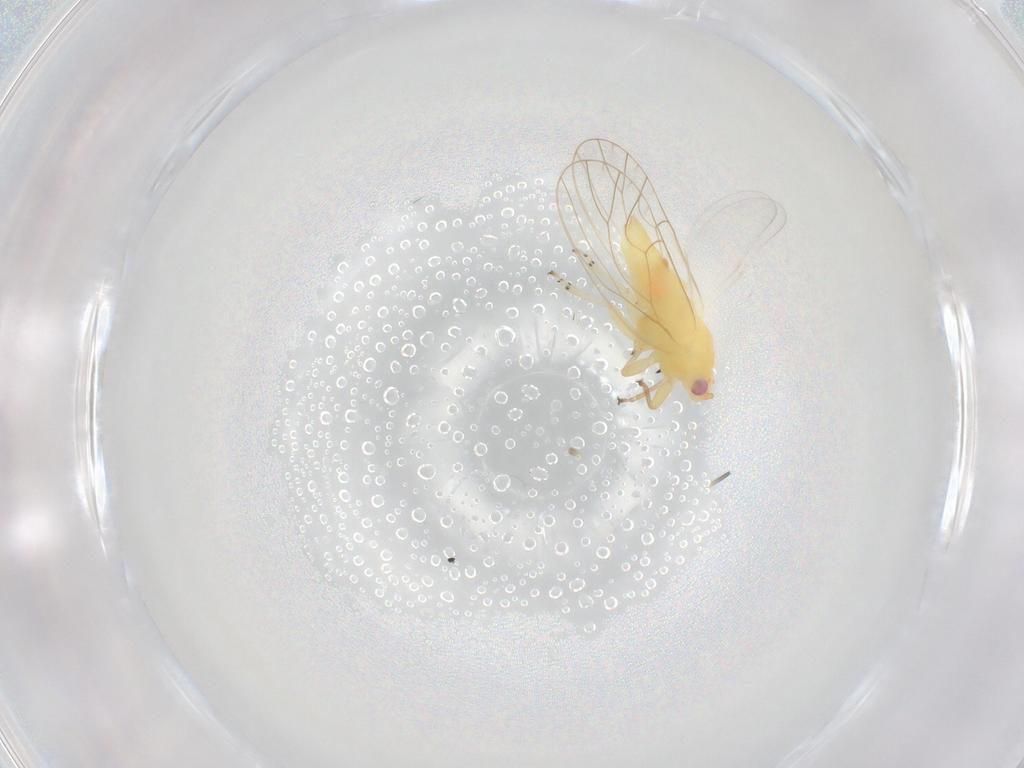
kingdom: Animalia
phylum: Arthropoda
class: Insecta
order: Hemiptera
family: Psyllidae
